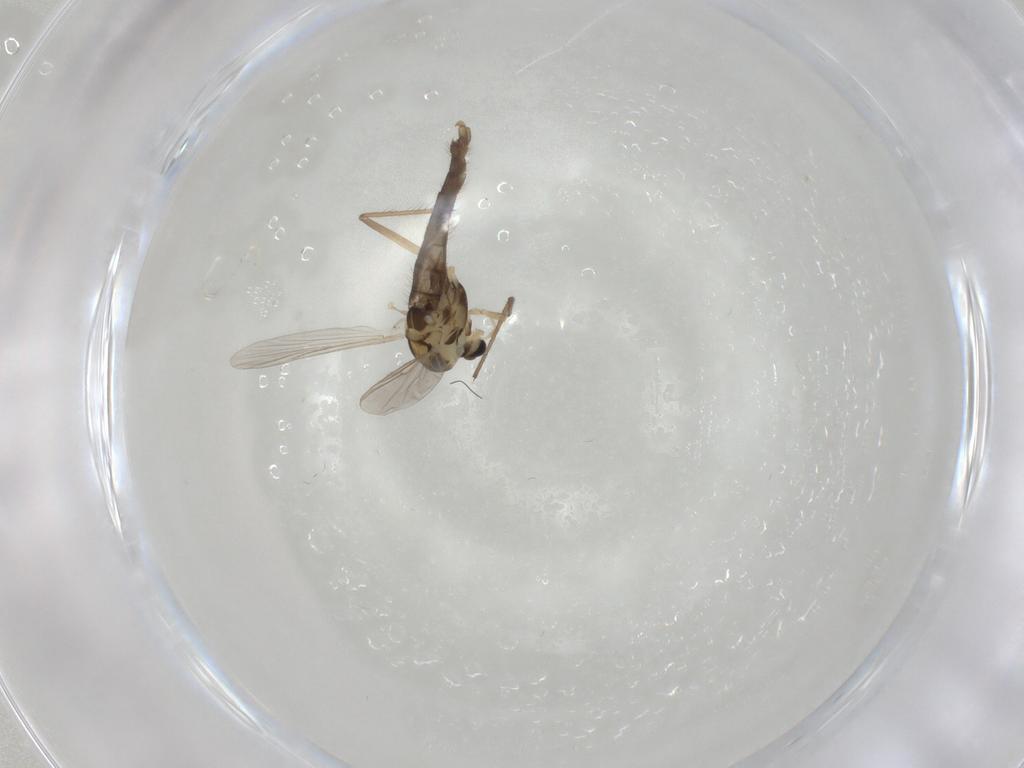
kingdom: Animalia
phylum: Arthropoda
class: Insecta
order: Diptera
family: Chironomidae
